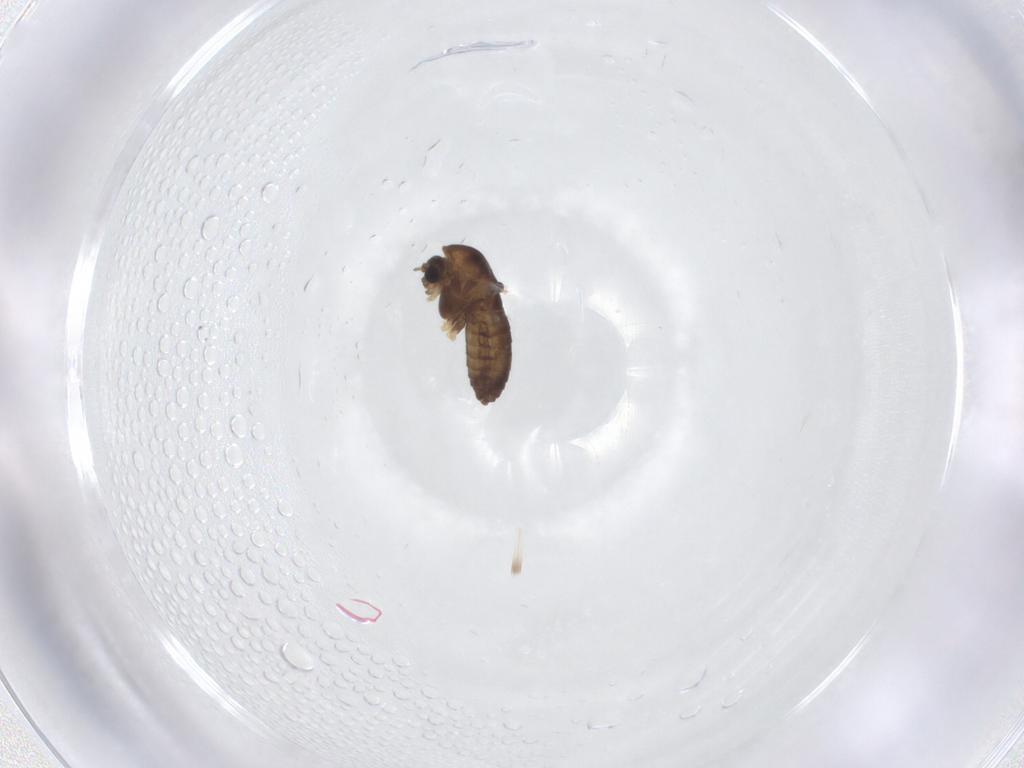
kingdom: Animalia
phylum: Arthropoda
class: Insecta
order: Diptera
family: Chironomidae
